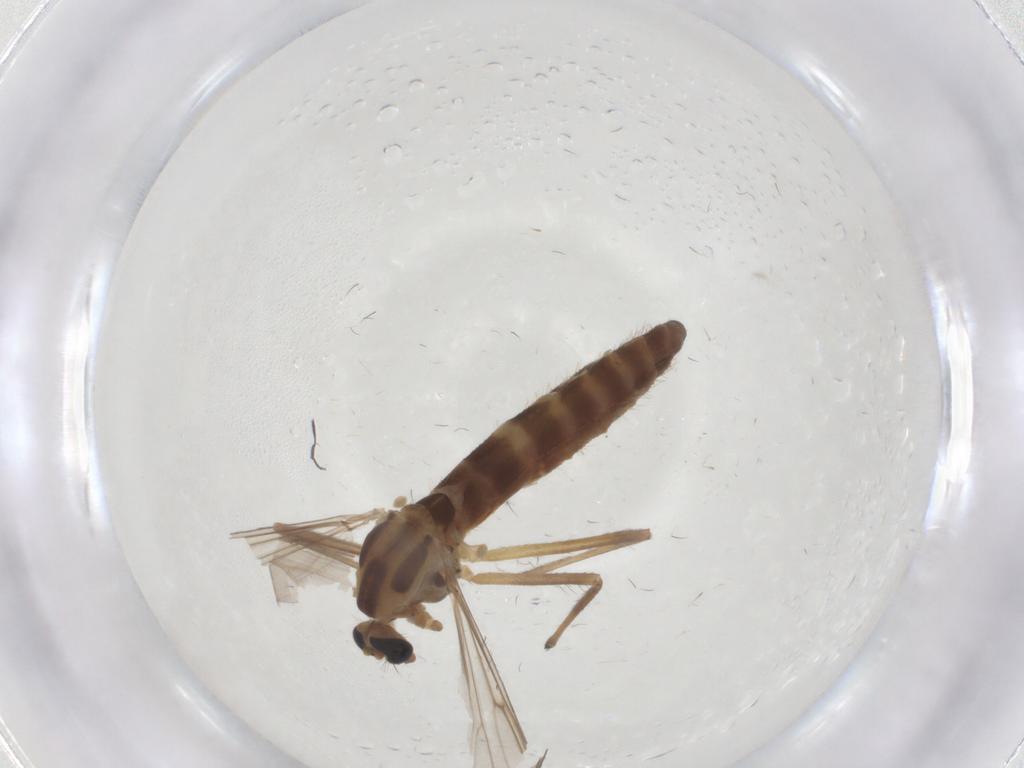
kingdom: Animalia
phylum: Arthropoda
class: Insecta
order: Diptera
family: Chironomidae
